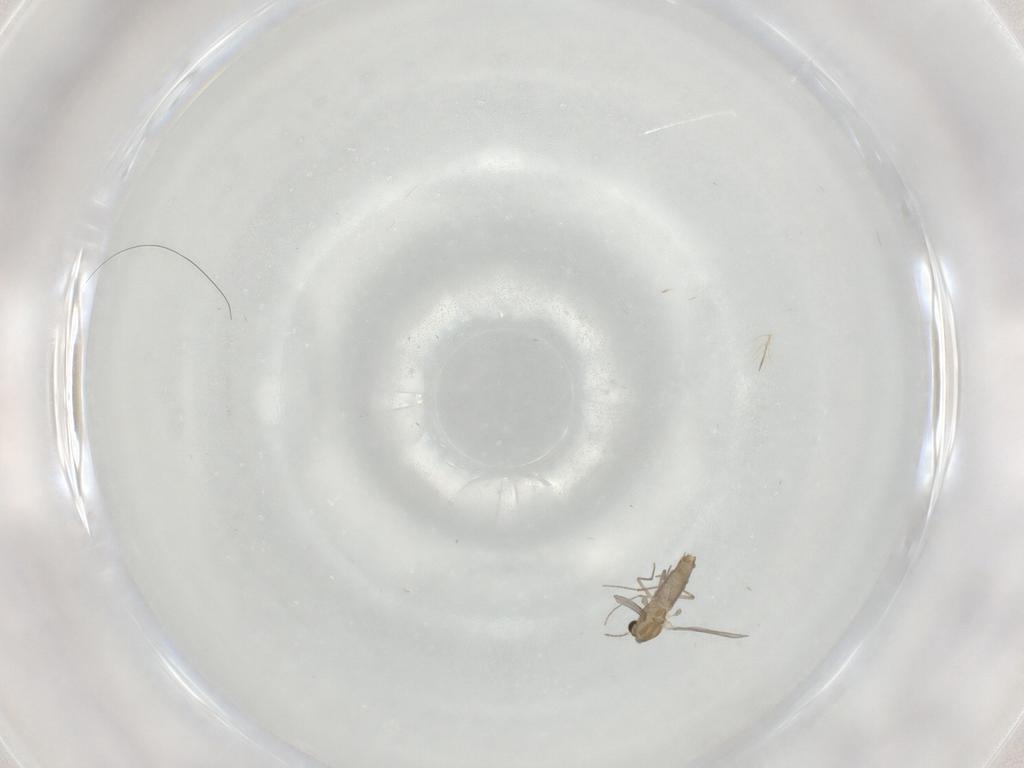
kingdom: Animalia
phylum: Arthropoda
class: Insecta
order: Diptera
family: Chironomidae
